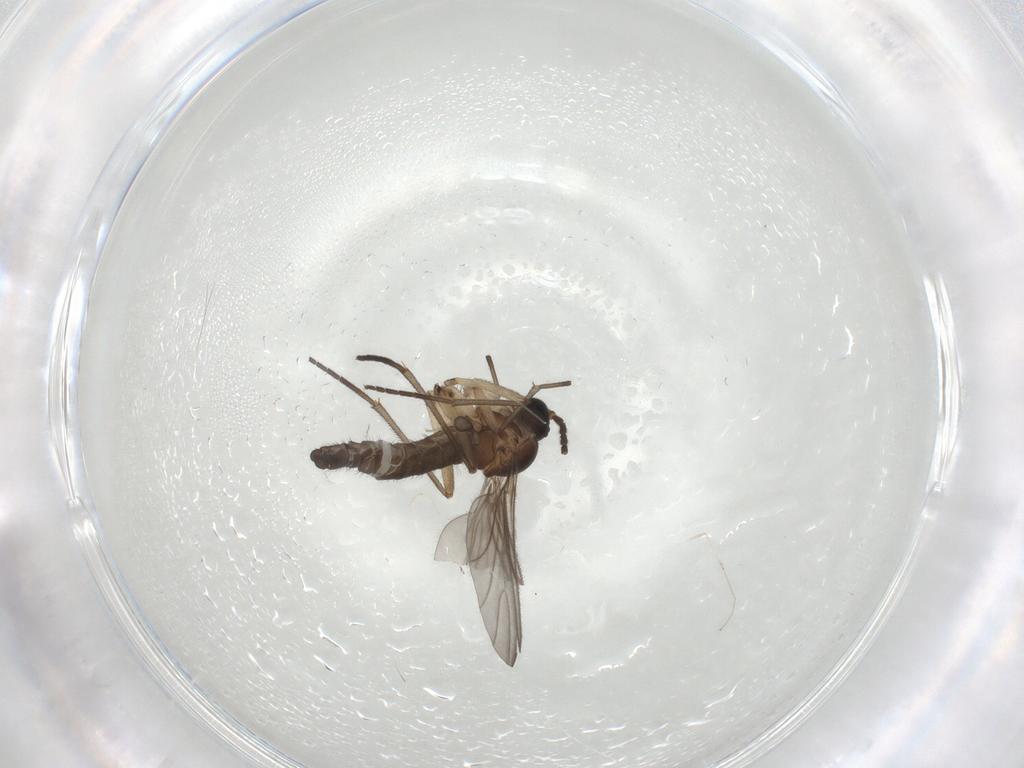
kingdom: Animalia
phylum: Arthropoda
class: Insecta
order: Diptera
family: Sciaridae
